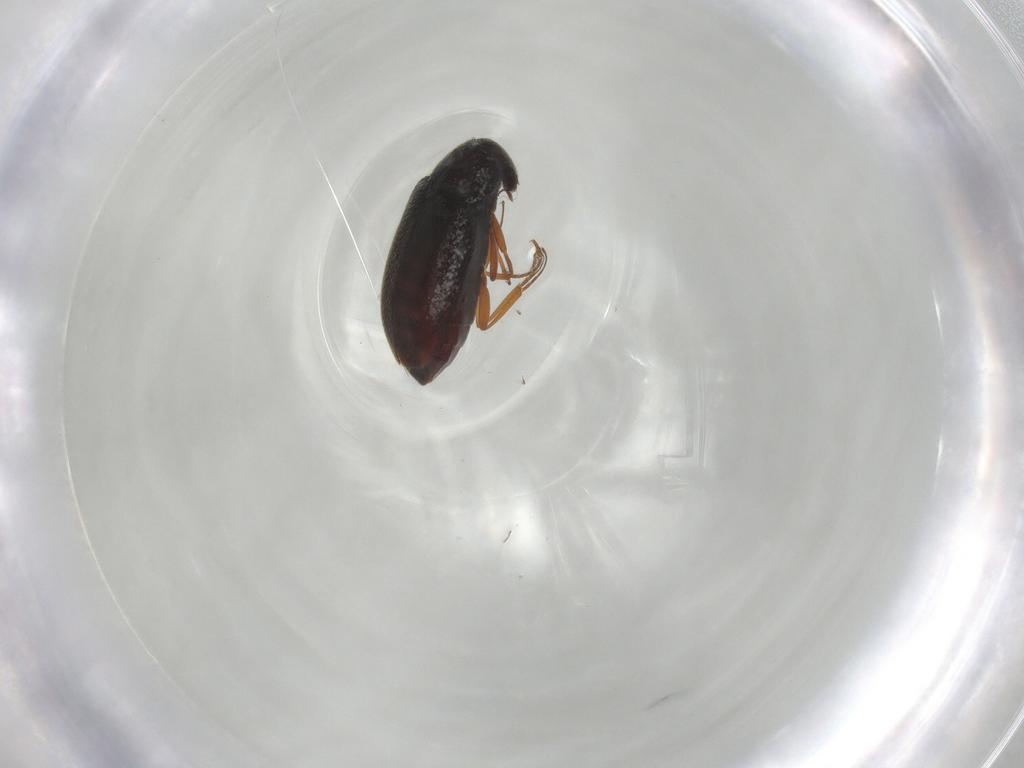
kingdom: Animalia
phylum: Arthropoda
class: Insecta
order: Coleoptera
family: Rhadalidae
